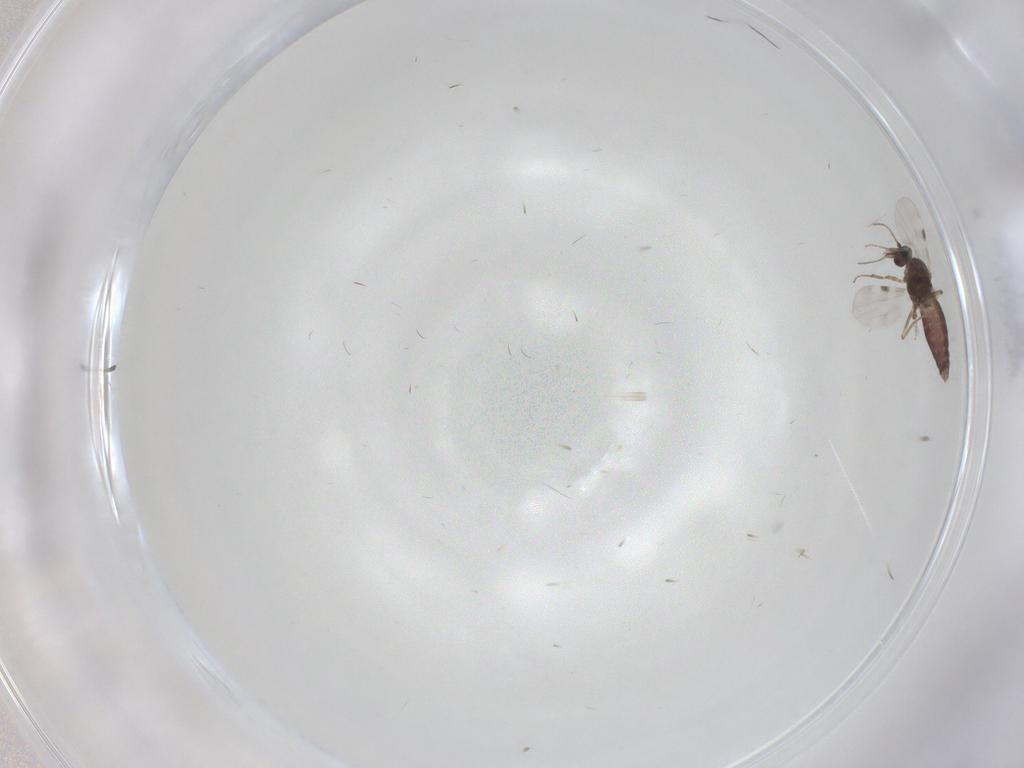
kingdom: Animalia
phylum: Arthropoda
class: Insecta
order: Diptera
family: Psychodidae
